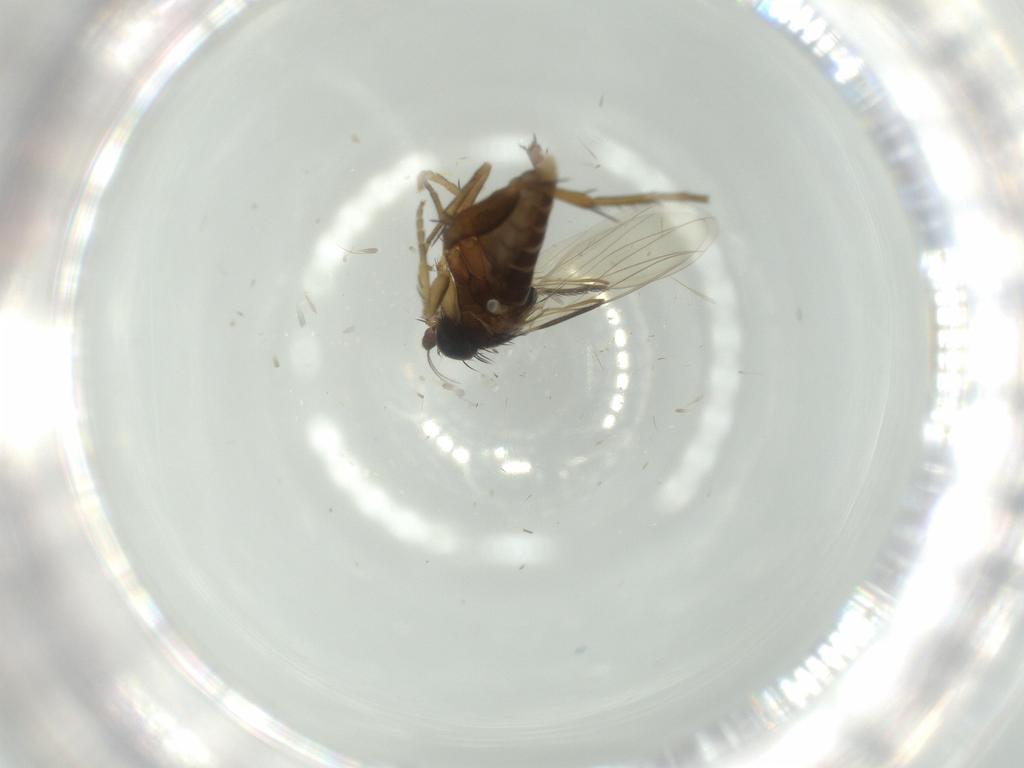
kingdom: Animalia
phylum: Arthropoda
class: Insecta
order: Diptera
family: Phoridae
